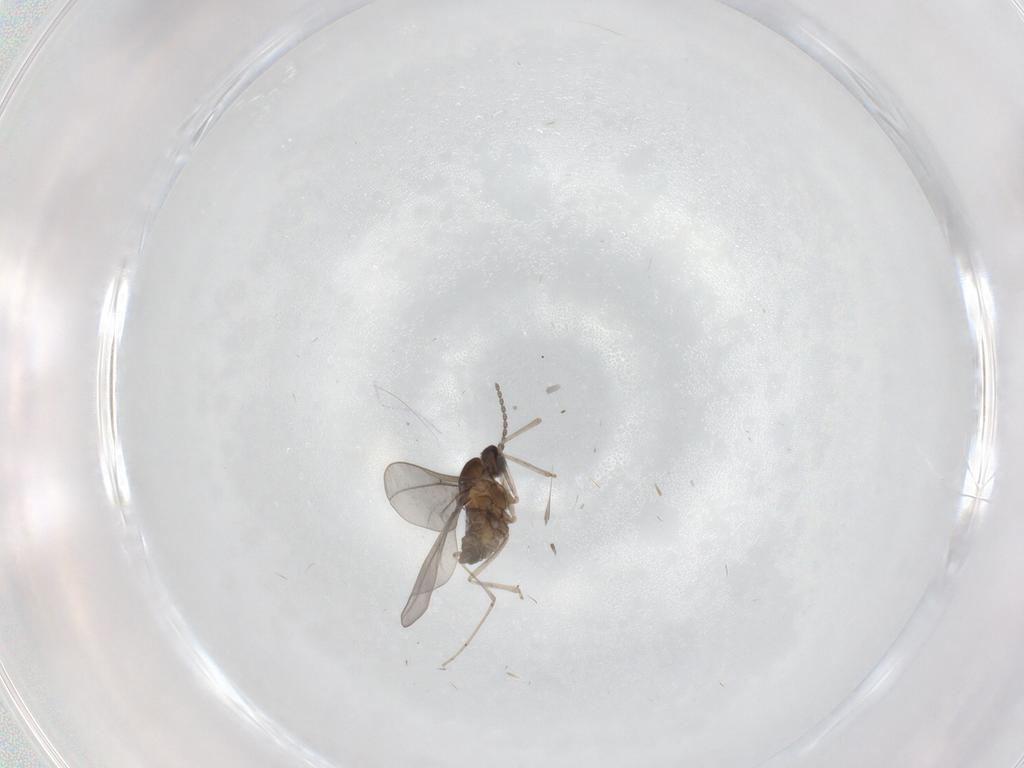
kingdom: Animalia
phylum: Arthropoda
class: Insecta
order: Diptera
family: Cecidomyiidae
